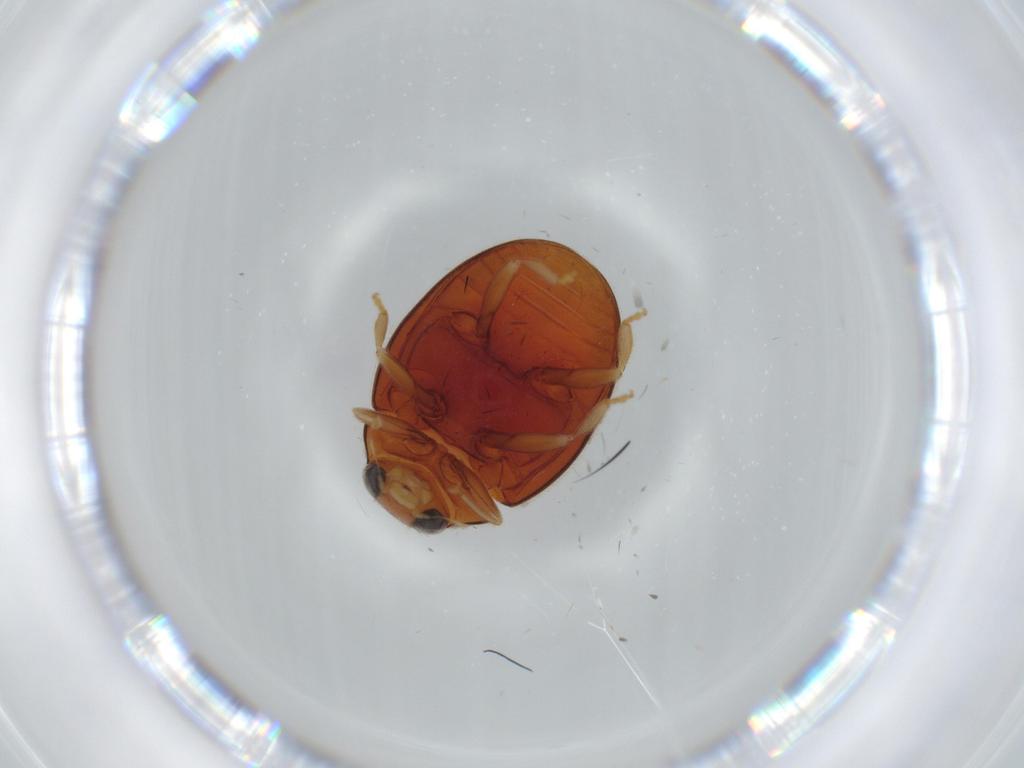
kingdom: Animalia
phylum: Arthropoda
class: Insecta
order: Coleoptera
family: Coccinellidae
